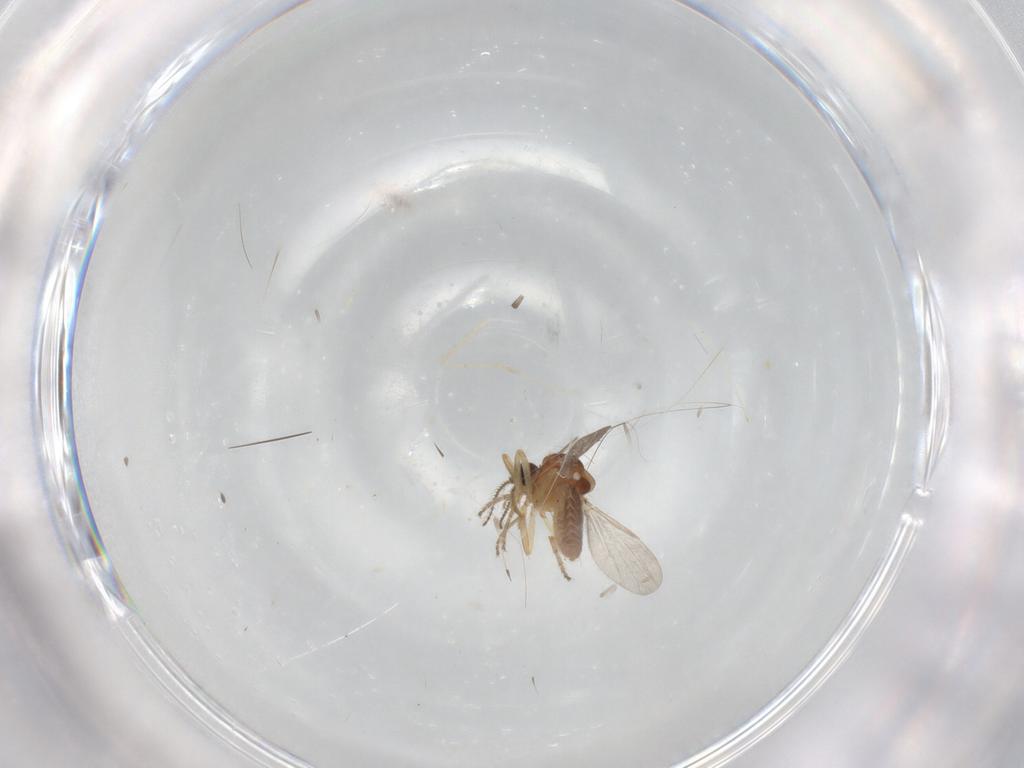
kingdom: Animalia
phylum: Arthropoda
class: Insecta
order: Diptera
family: Ceratopogonidae
